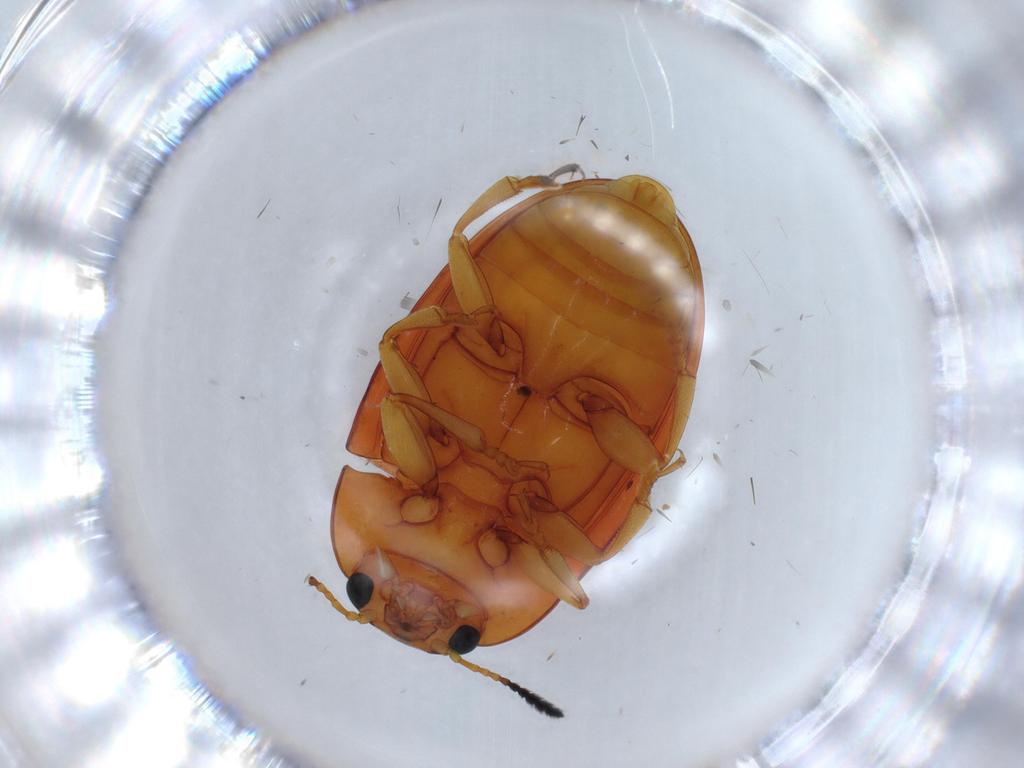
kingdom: Animalia
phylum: Arthropoda
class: Insecta
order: Coleoptera
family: Erotylidae
